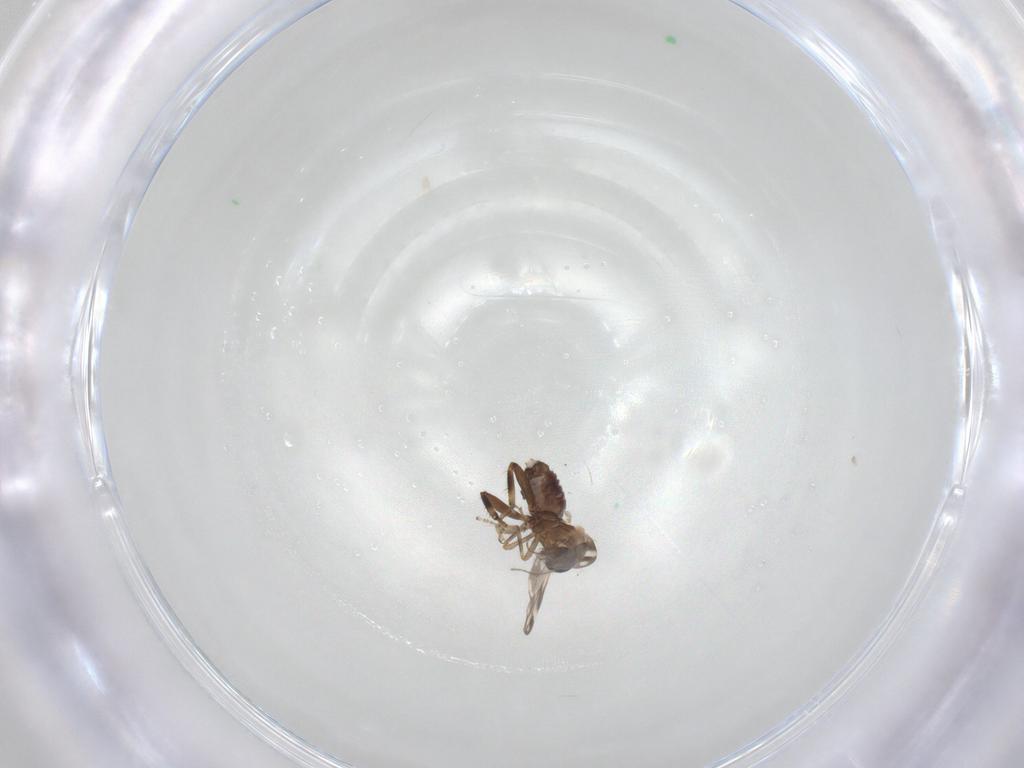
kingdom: Animalia
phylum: Arthropoda
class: Insecta
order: Diptera
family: Ceratopogonidae
